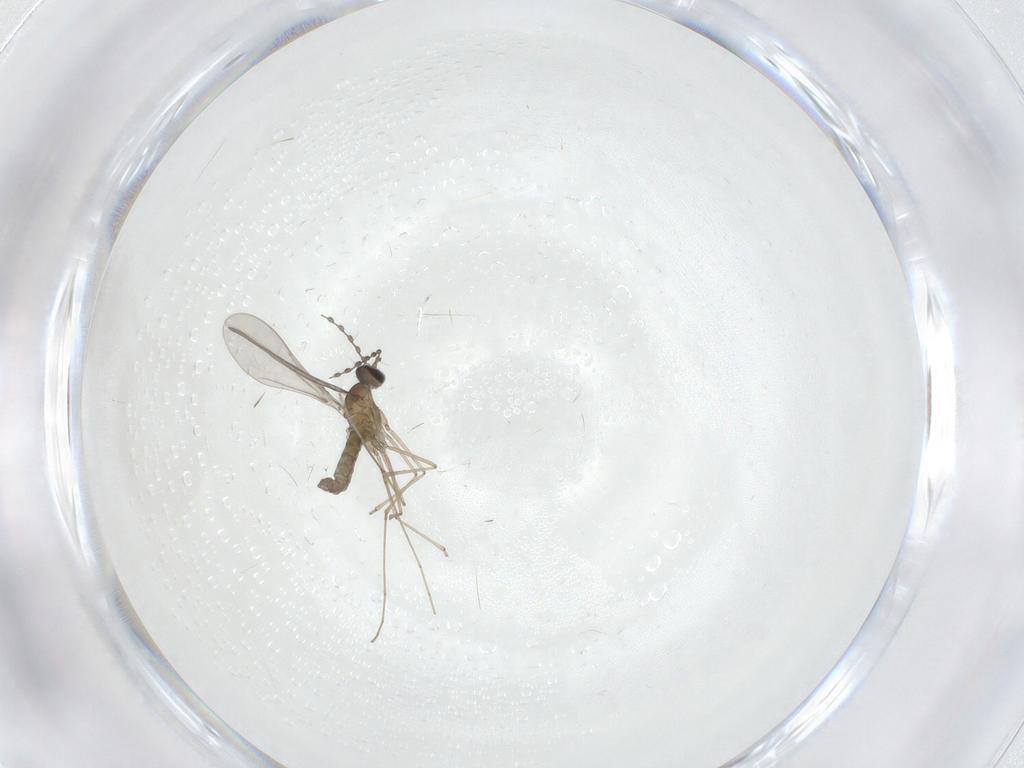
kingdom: Animalia
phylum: Arthropoda
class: Insecta
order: Diptera
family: Cecidomyiidae
